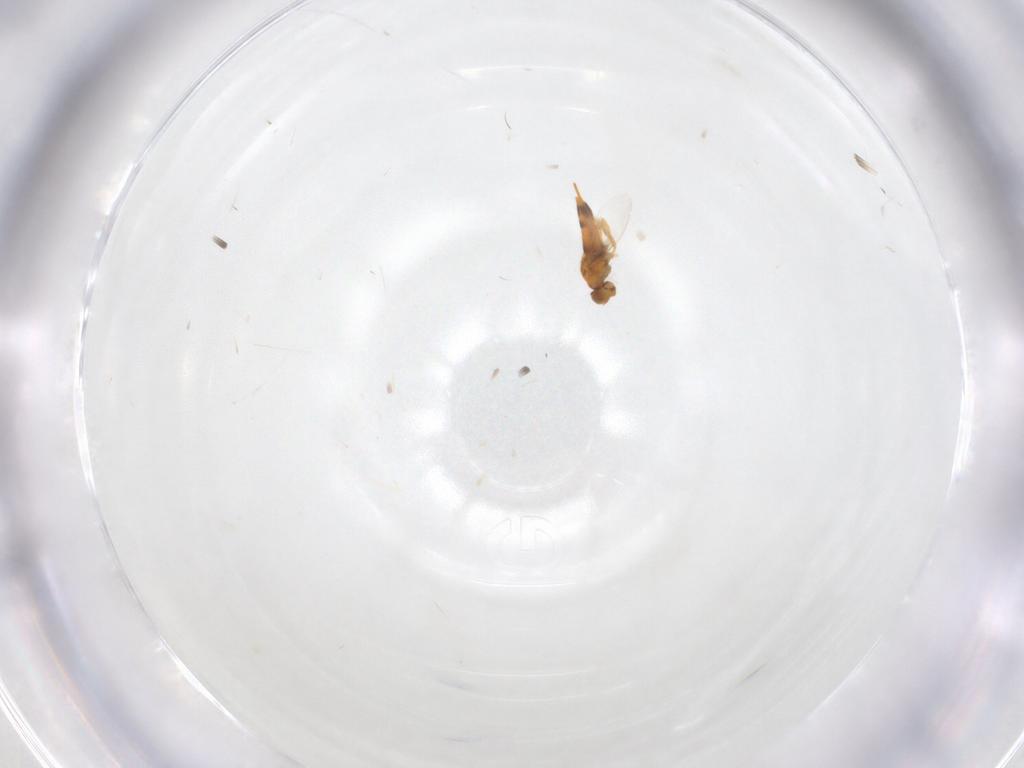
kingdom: Animalia
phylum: Arthropoda
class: Insecta
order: Hymenoptera
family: Aphelinidae
